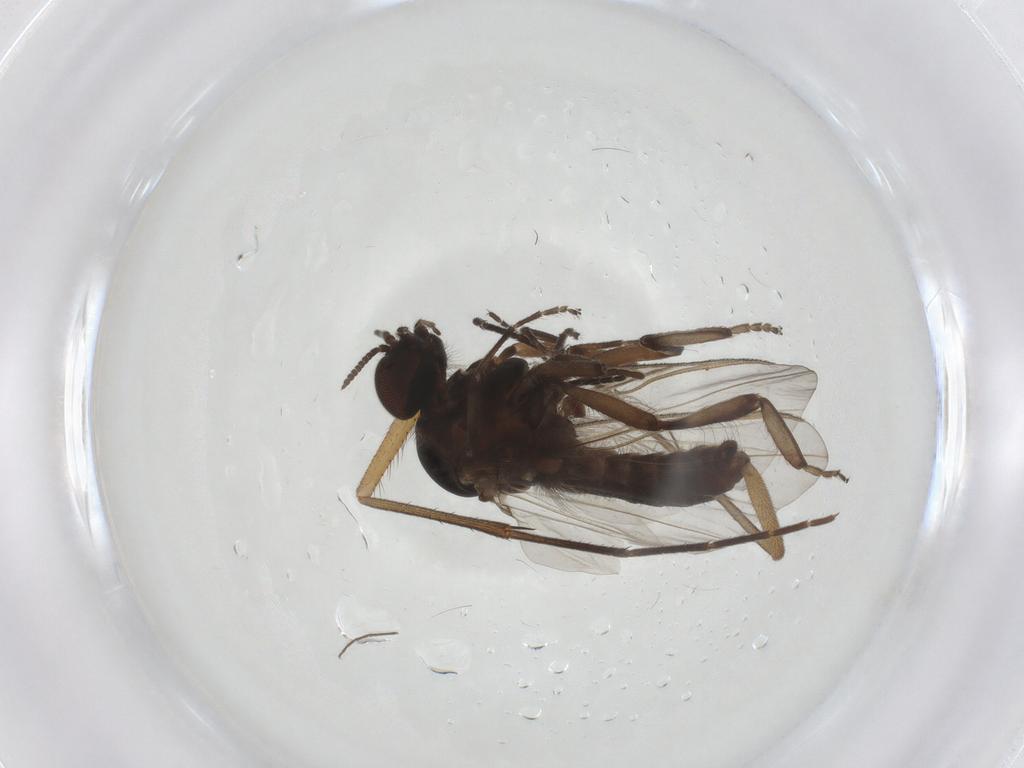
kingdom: Animalia
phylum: Arthropoda
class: Insecta
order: Diptera
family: Simuliidae
